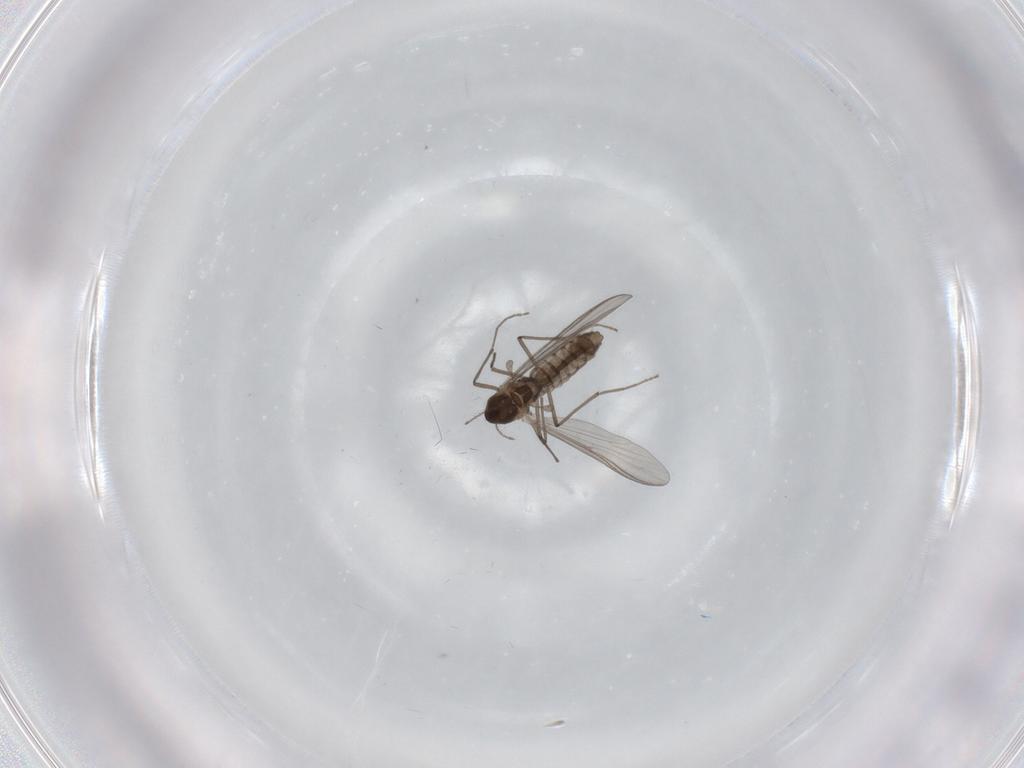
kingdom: Animalia
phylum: Arthropoda
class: Insecta
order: Diptera
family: Chironomidae
